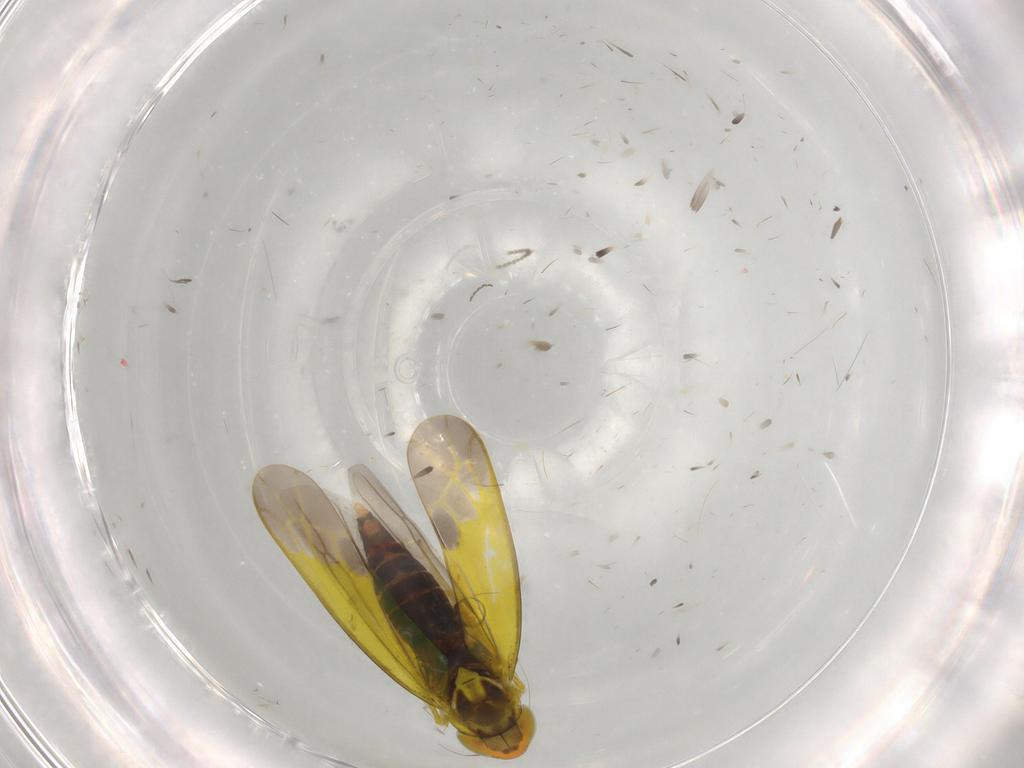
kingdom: Animalia
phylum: Arthropoda
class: Insecta
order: Hemiptera
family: Cicadellidae
